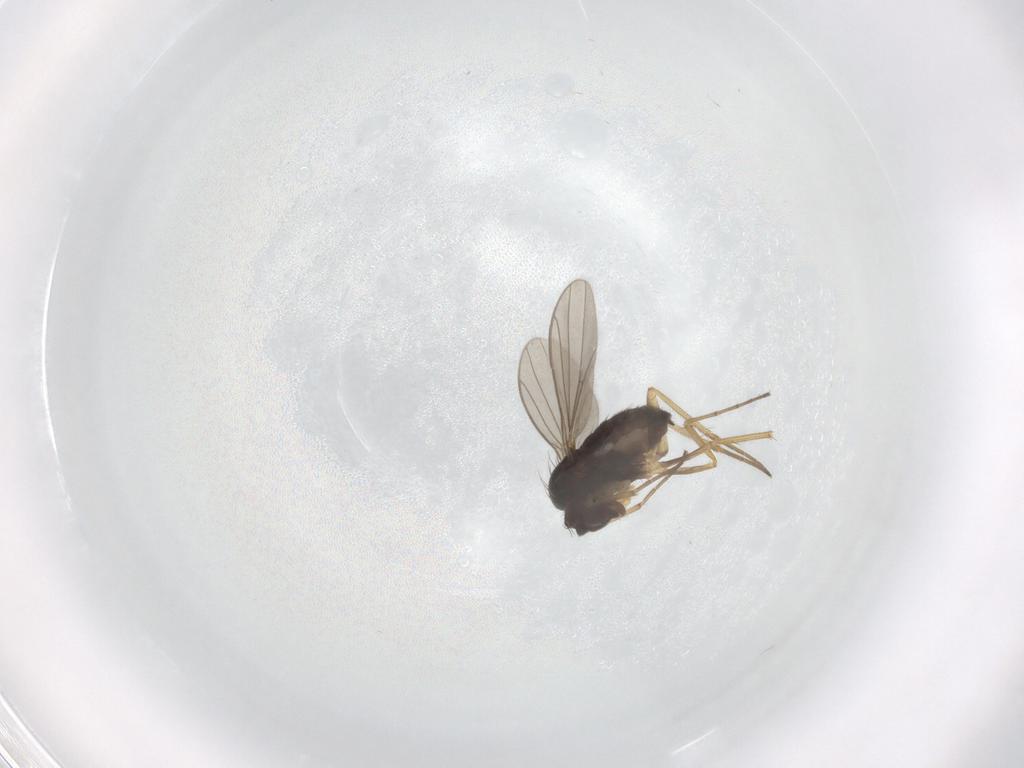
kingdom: Animalia
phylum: Arthropoda
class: Insecta
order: Diptera
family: Dolichopodidae
